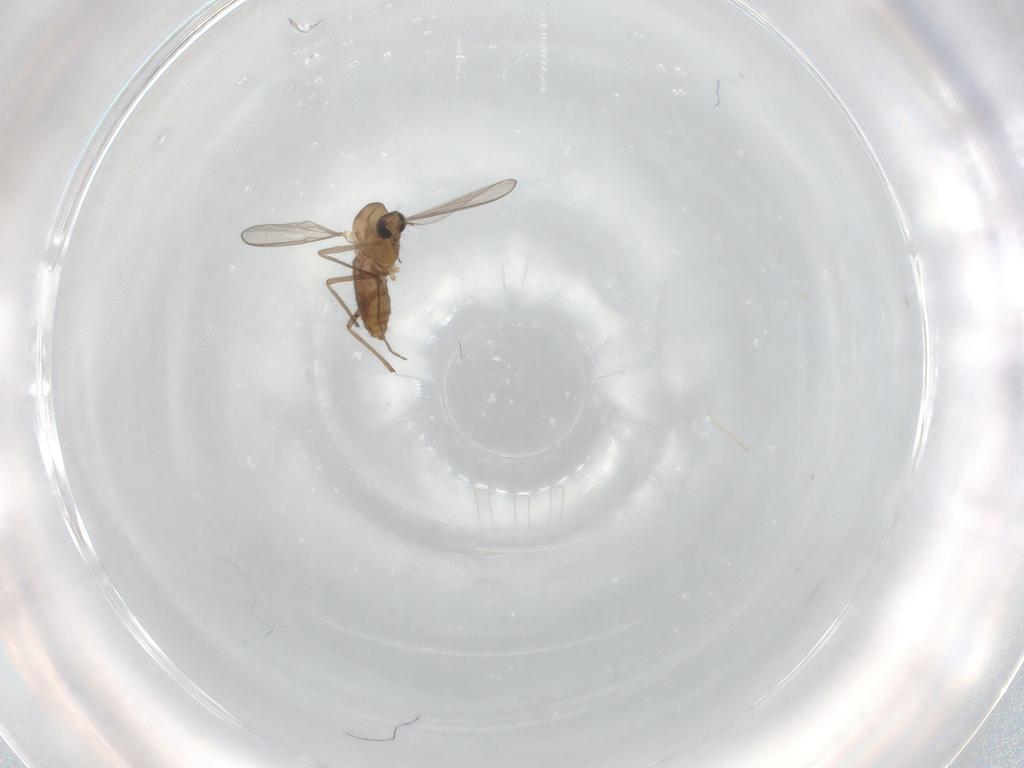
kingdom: Animalia
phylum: Arthropoda
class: Insecta
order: Diptera
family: Chironomidae
